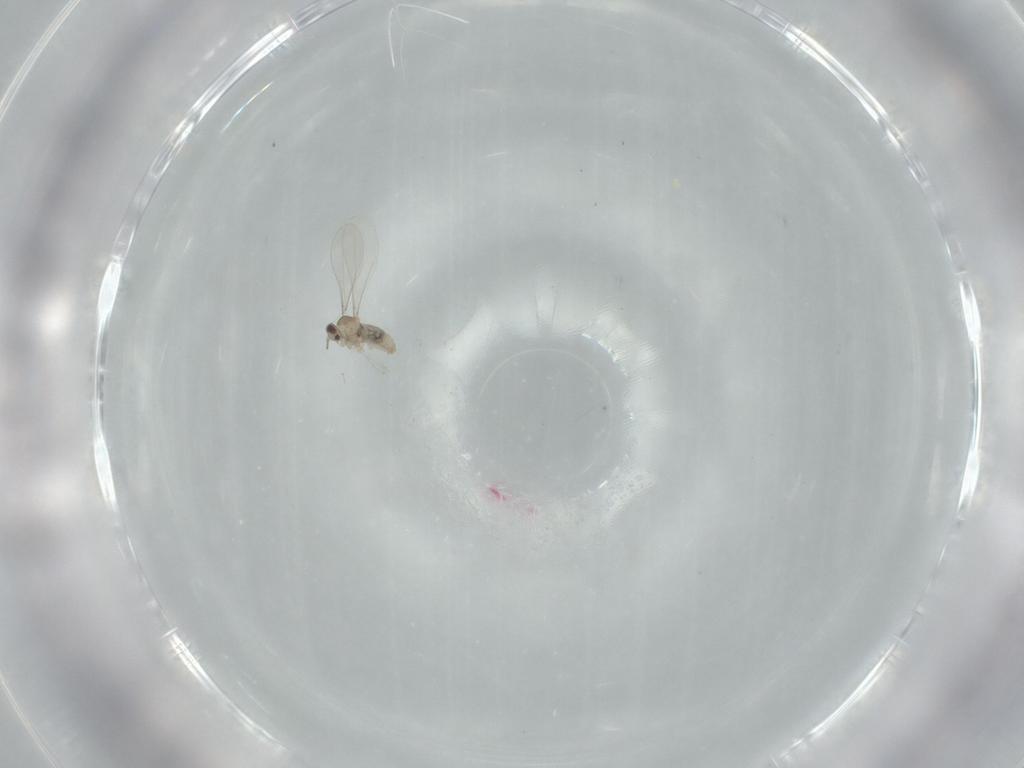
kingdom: Animalia
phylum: Arthropoda
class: Insecta
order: Diptera
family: Cecidomyiidae
